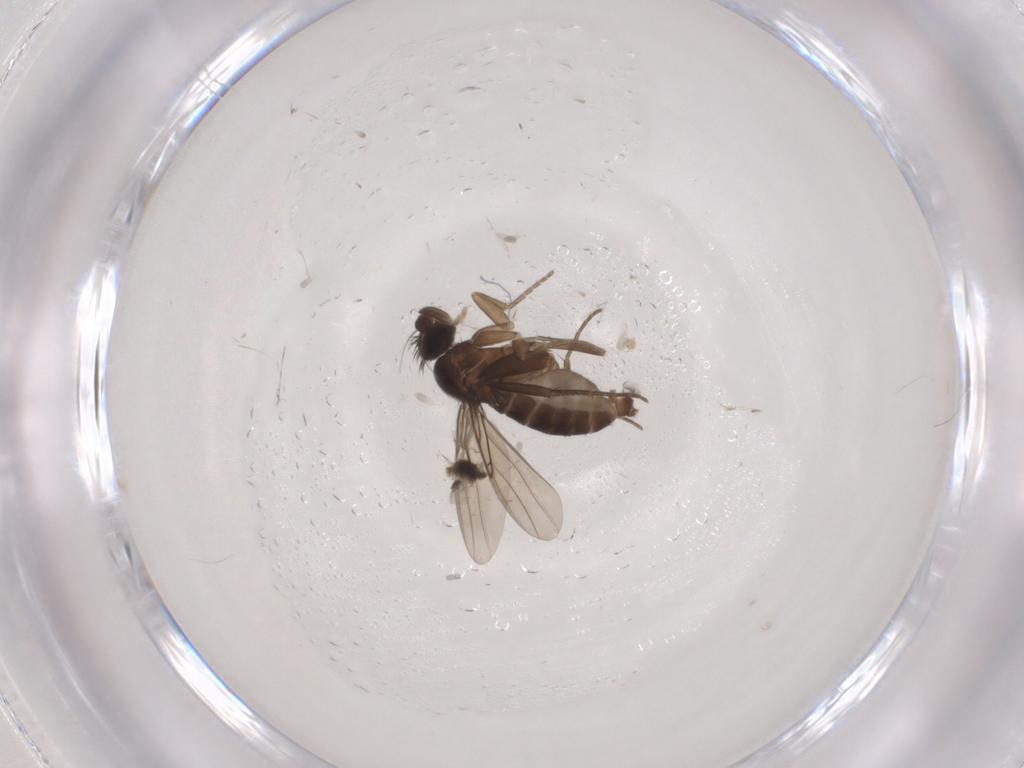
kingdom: Animalia
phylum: Arthropoda
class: Insecta
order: Diptera
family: Phoridae
